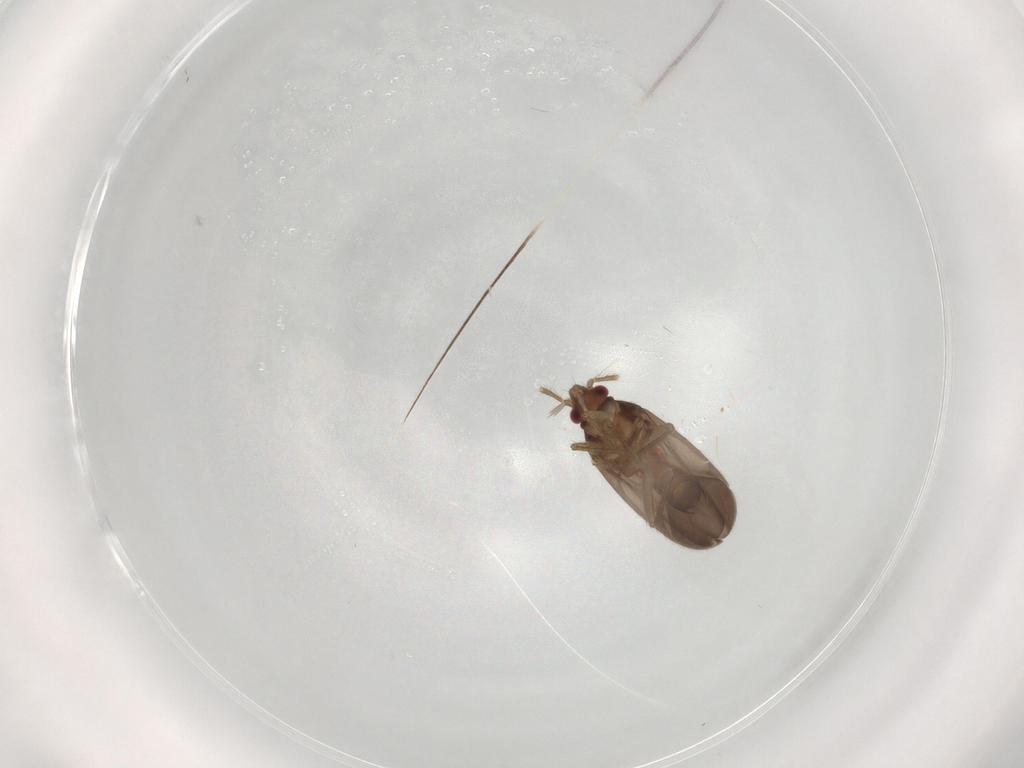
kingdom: Animalia
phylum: Arthropoda
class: Insecta
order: Hemiptera
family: Ceratocombidae
